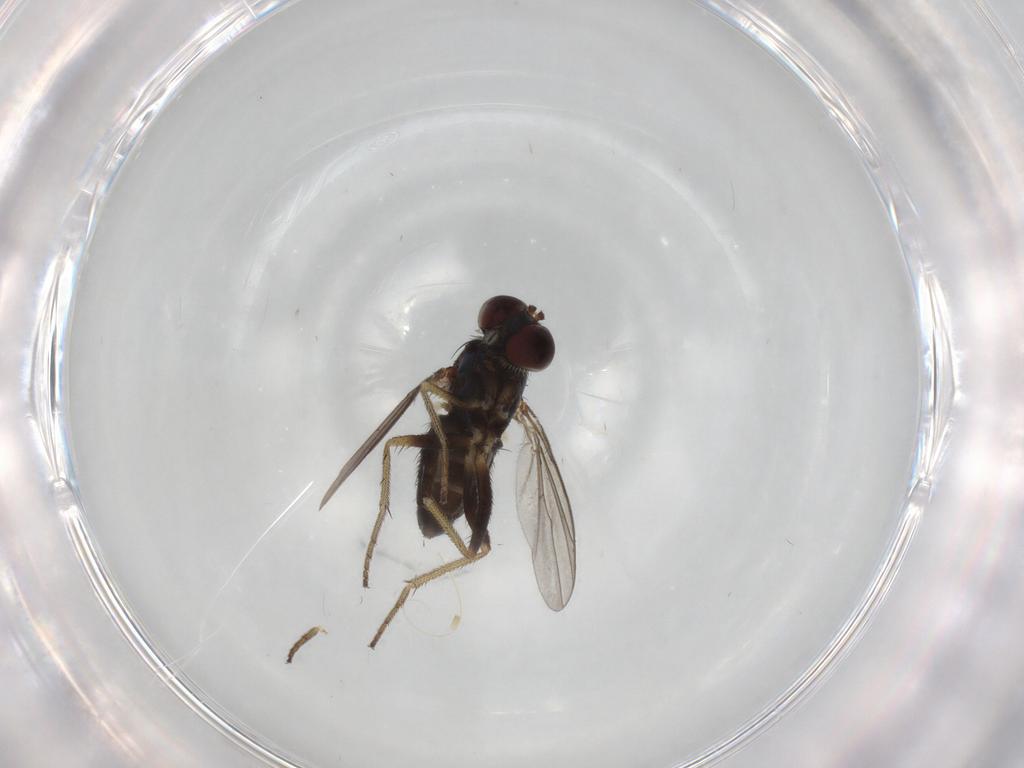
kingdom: Animalia
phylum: Arthropoda
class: Insecta
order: Diptera
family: Dolichopodidae
